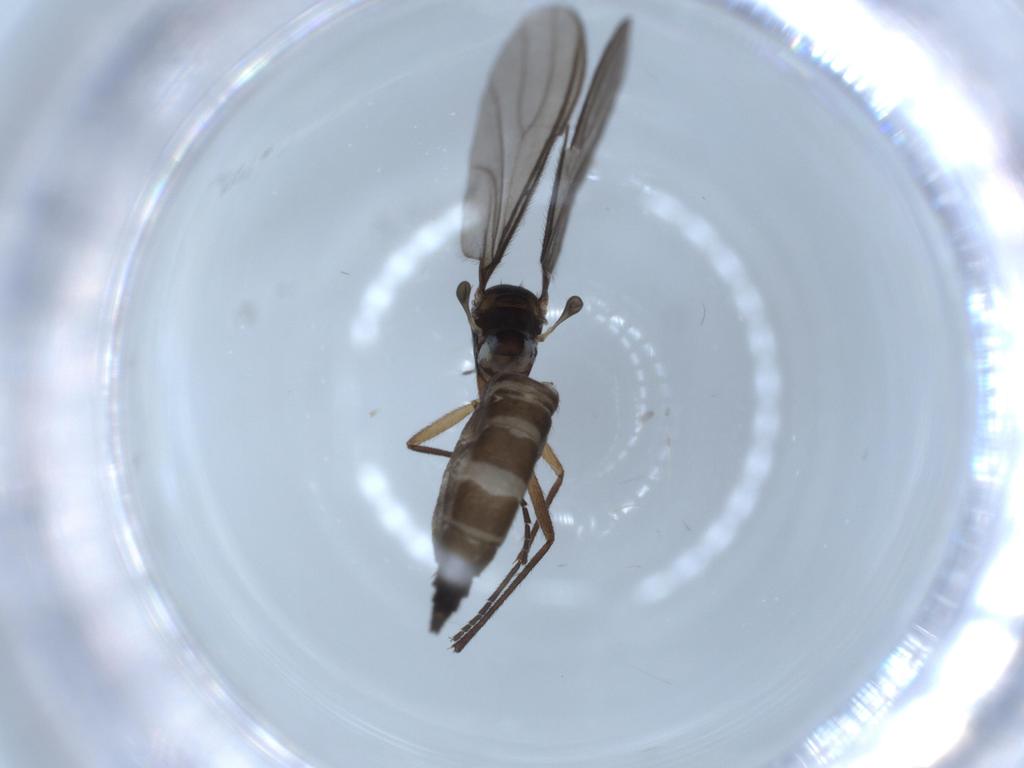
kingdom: Animalia
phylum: Arthropoda
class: Insecta
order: Diptera
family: Sciaridae
